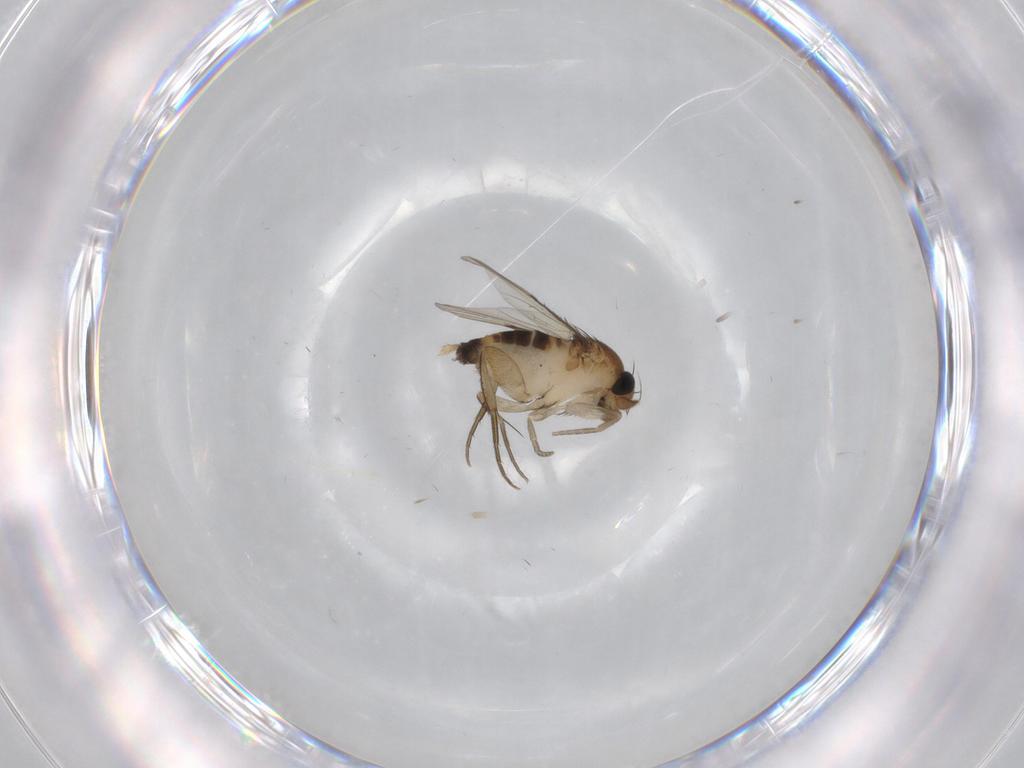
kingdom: Animalia
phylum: Arthropoda
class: Insecta
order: Diptera
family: Phoridae
